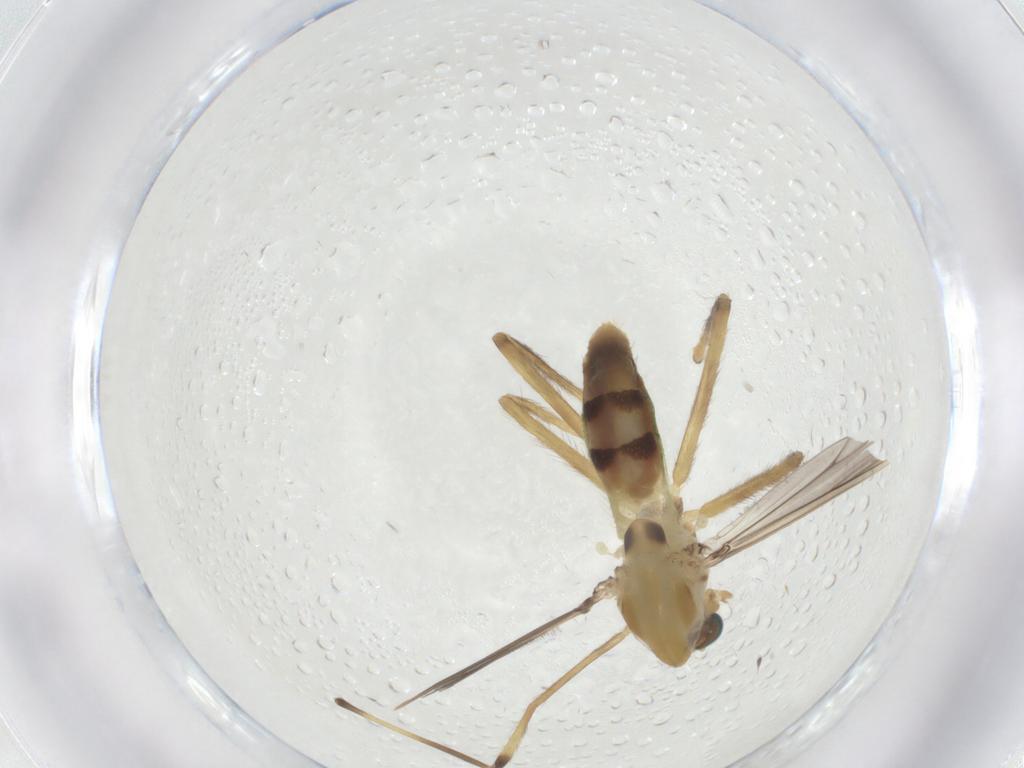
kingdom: Animalia
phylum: Arthropoda
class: Insecta
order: Diptera
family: Chironomidae
